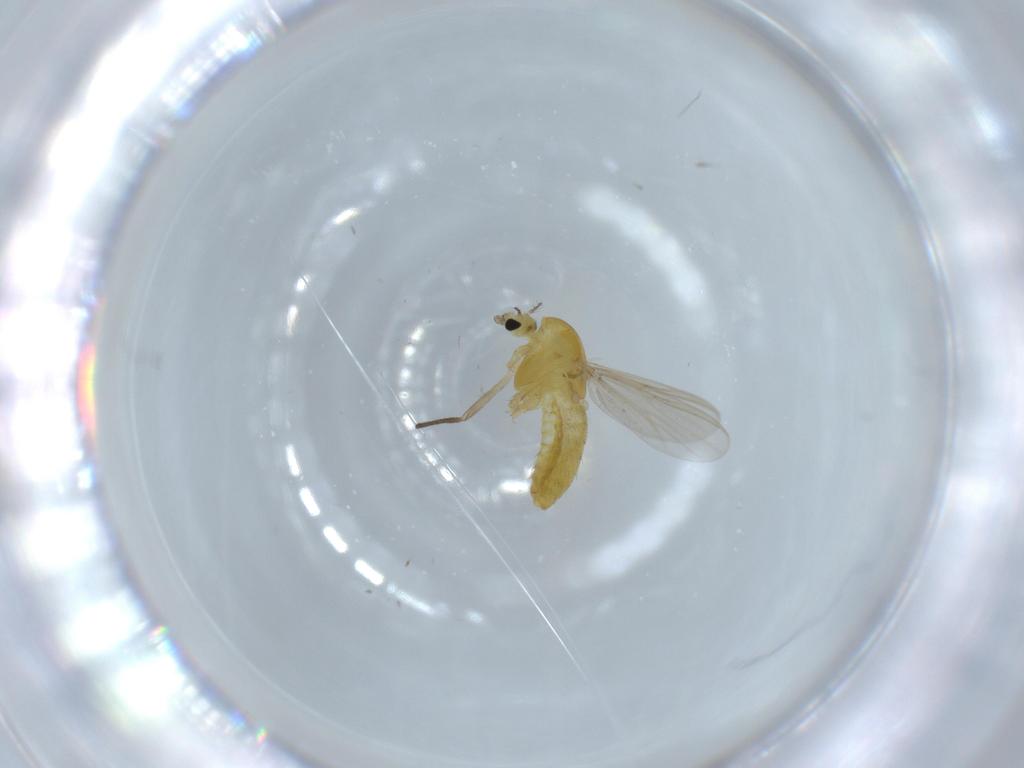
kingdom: Animalia
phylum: Arthropoda
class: Insecta
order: Diptera
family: Chironomidae
